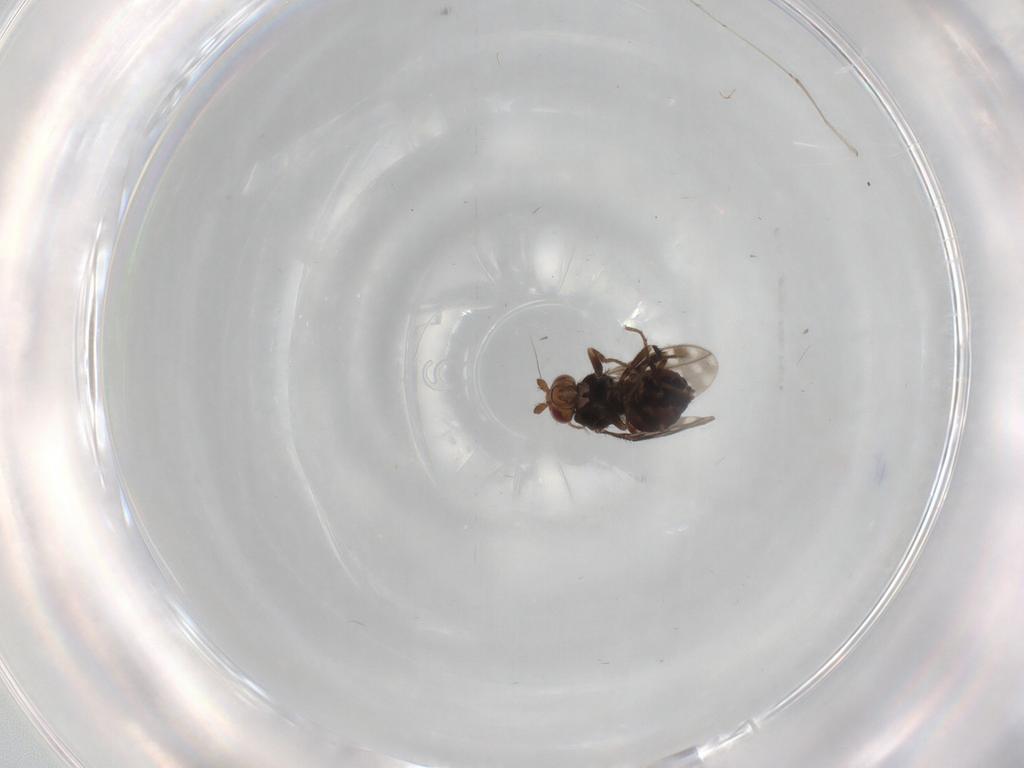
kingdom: Animalia
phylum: Arthropoda
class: Insecta
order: Diptera
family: Sphaeroceridae
